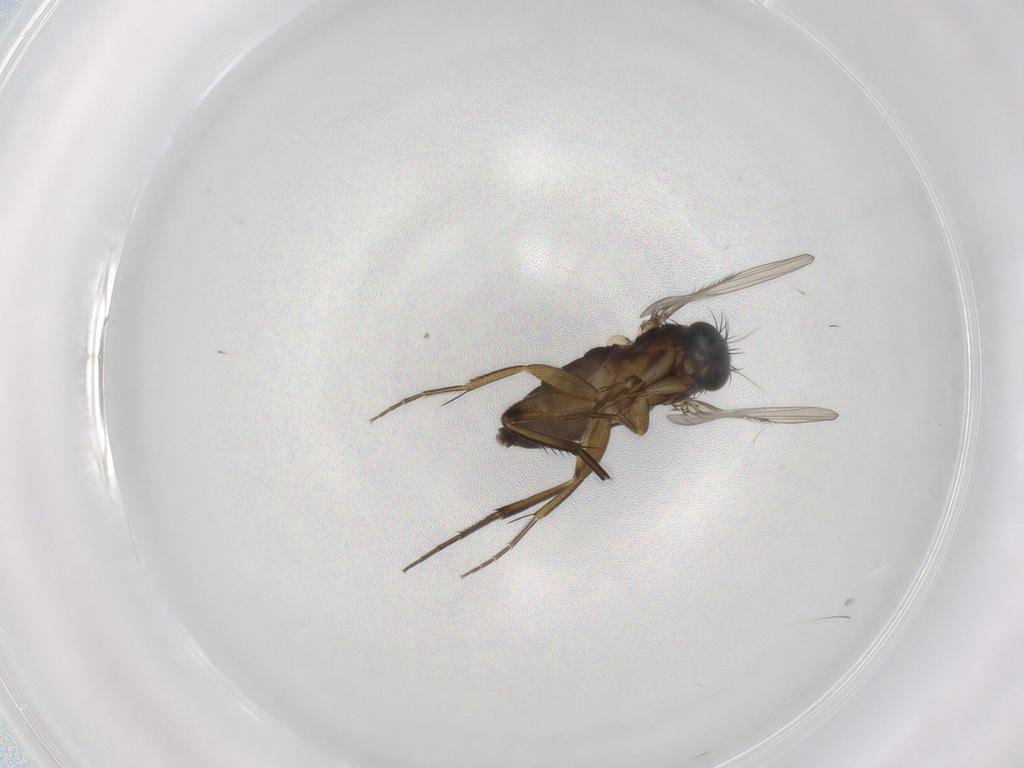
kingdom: Animalia
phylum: Arthropoda
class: Insecta
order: Diptera
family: Phoridae
